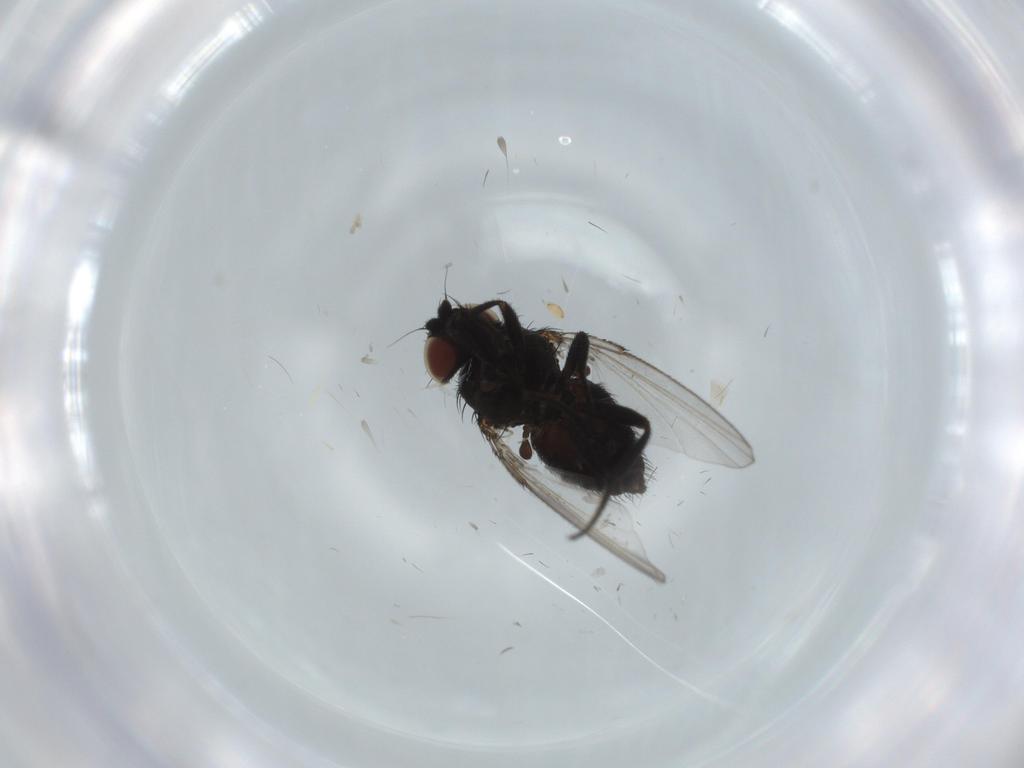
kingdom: Animalia
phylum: Arthropoda
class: Insecta
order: Diptera
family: Milichiidae
